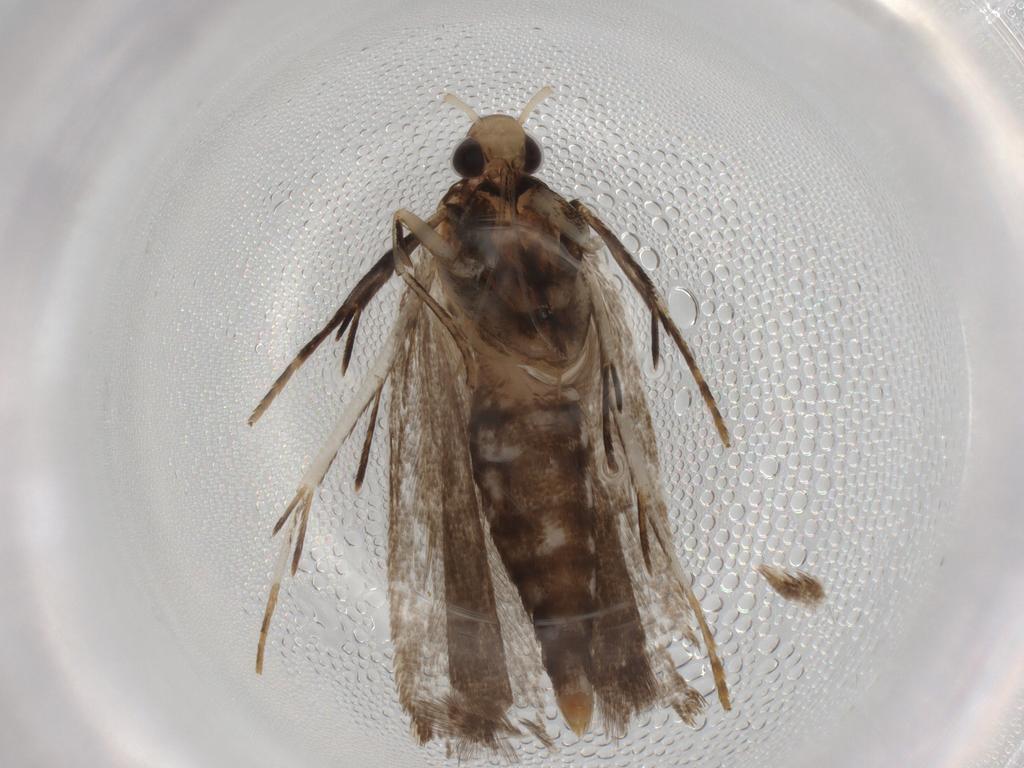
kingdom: Animalia
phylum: Arthropoda
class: Insecta
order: Lepidoptera
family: Gelechiidae
